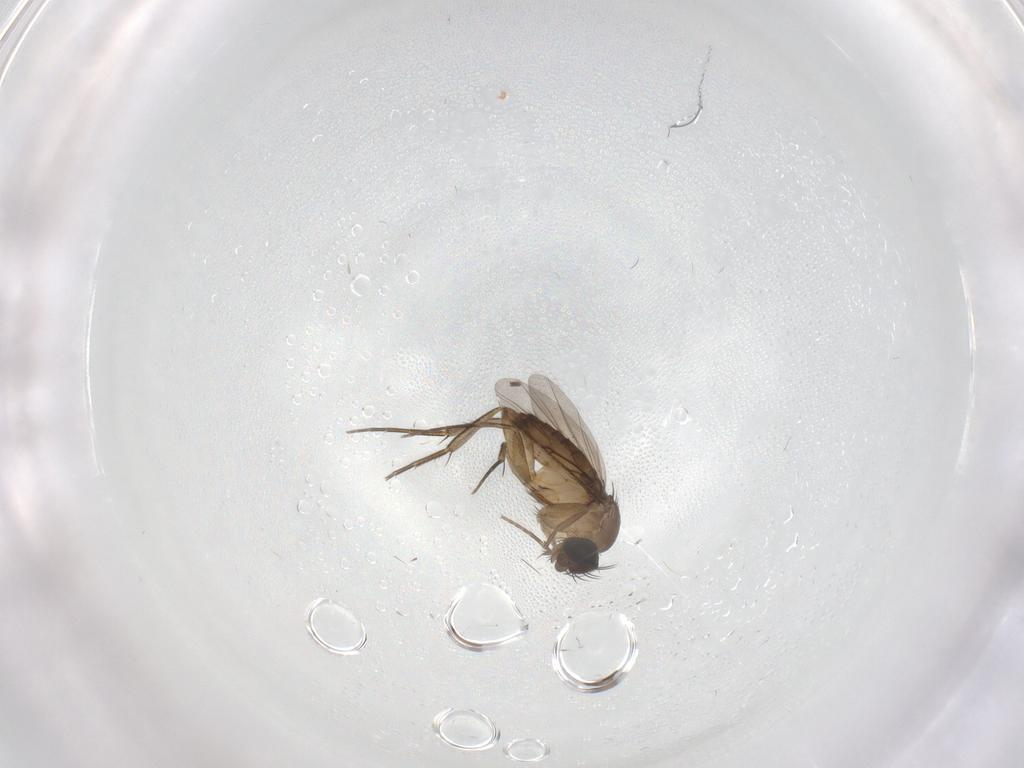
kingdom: Animalia
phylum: Arthropoda
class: Insecta
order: Diptera
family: Phoridae
